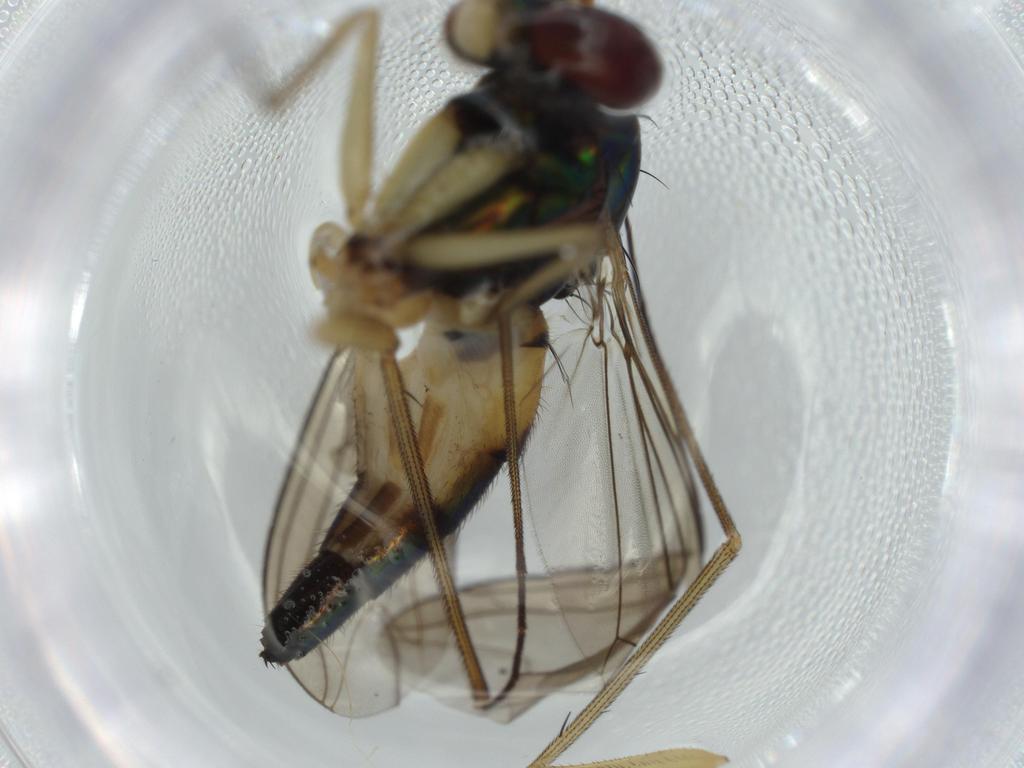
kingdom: Animalia
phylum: Arthropoda
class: Insecta
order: Diptera
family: Dolichopodidae
